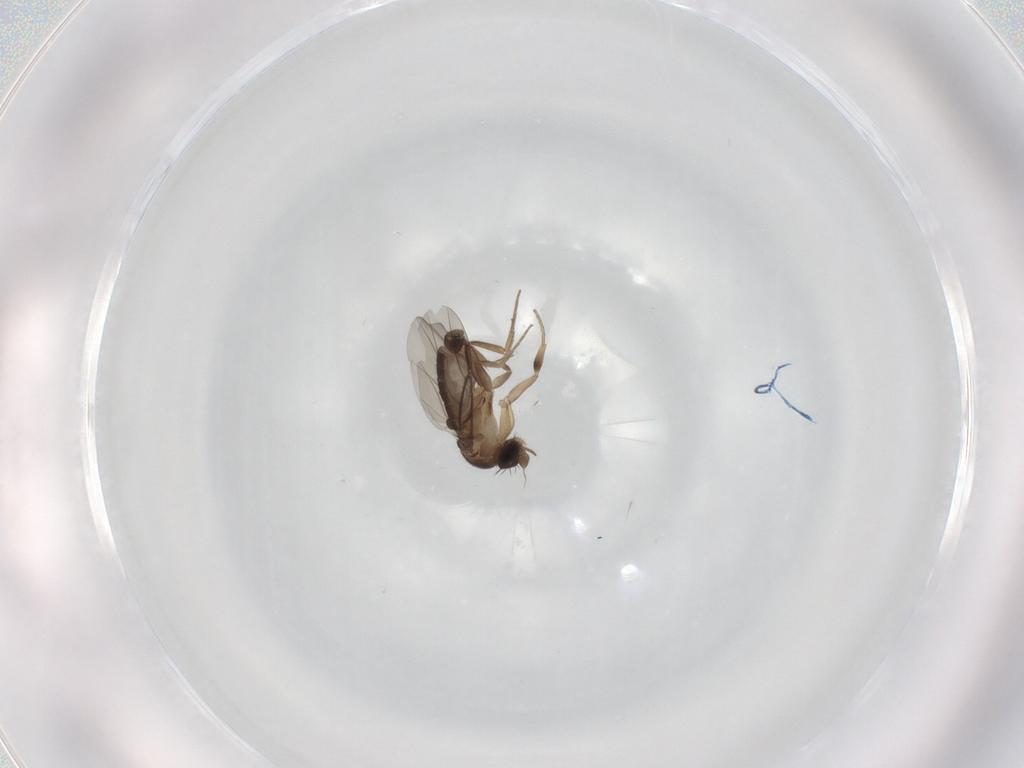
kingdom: Animalia
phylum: Arthropoda
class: Insecta
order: Diptera
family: Phoridae
